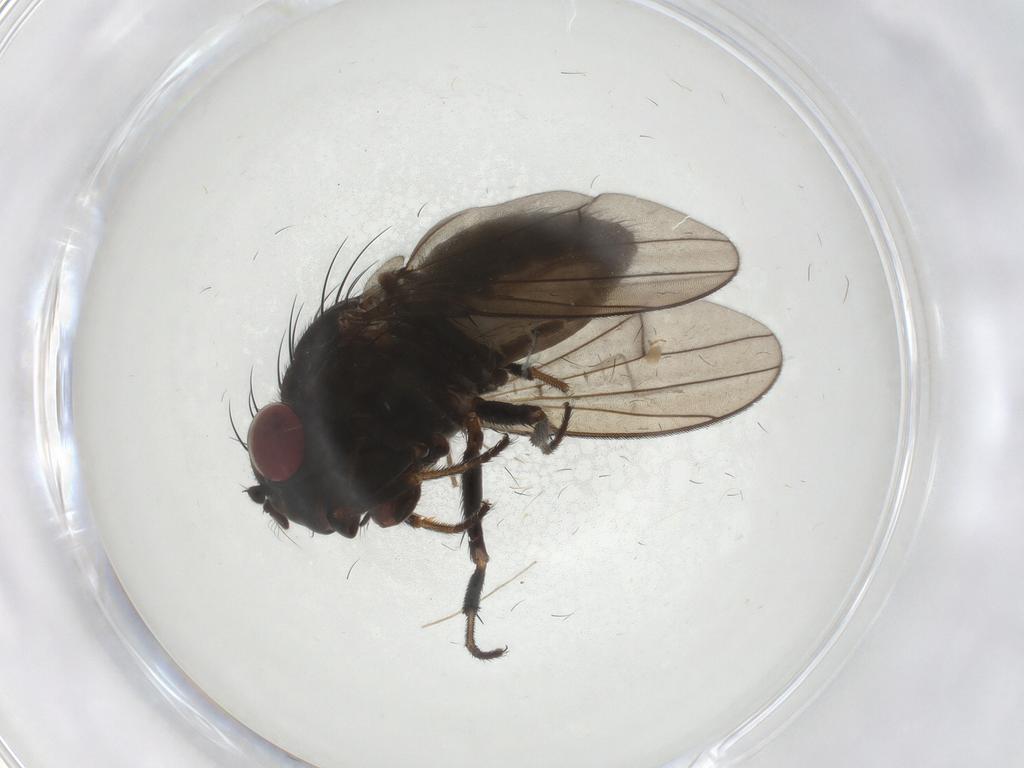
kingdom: Animalia
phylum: Arthropoda
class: Insecta
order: Diptera
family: Ephydridae
